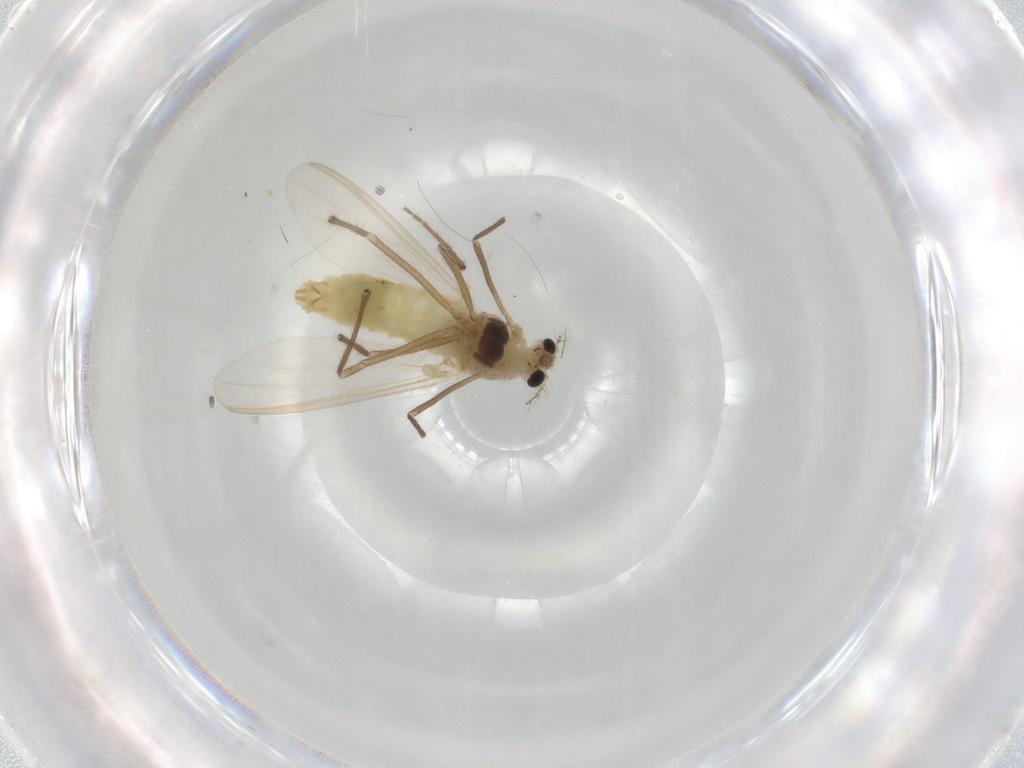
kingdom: Animalia
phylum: Arthropoda
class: Insecta
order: Diptera
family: Chironomidae
